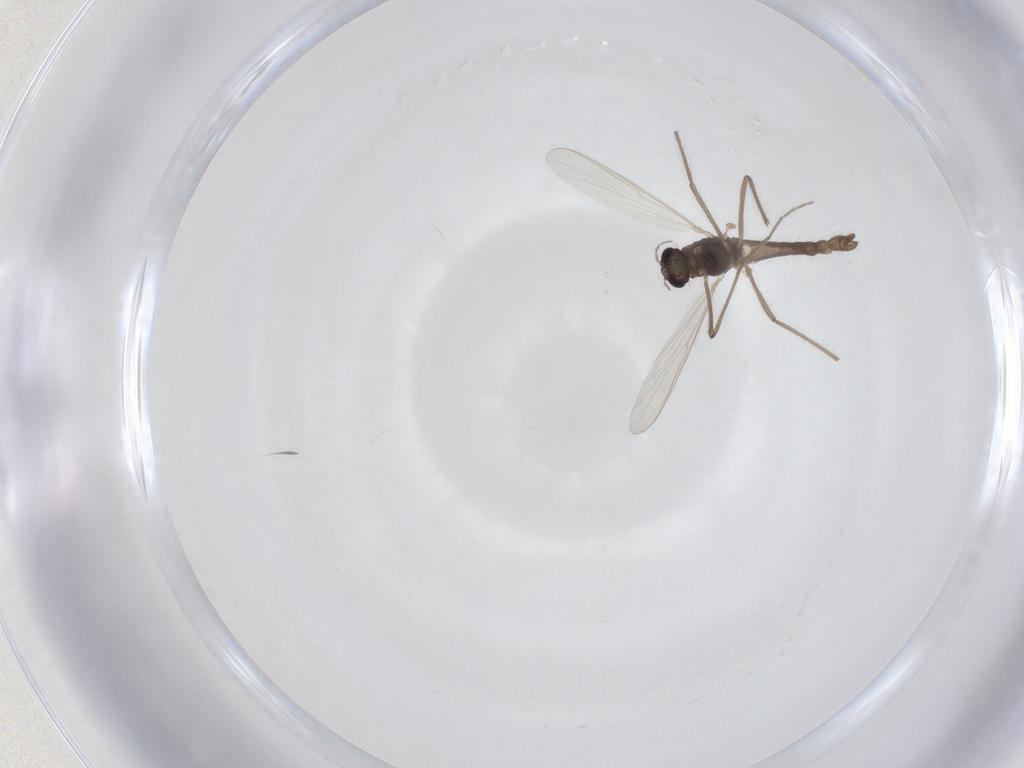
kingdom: Animalia
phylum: Arthropoda
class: Insecta
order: Diptera
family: Chironomidae
